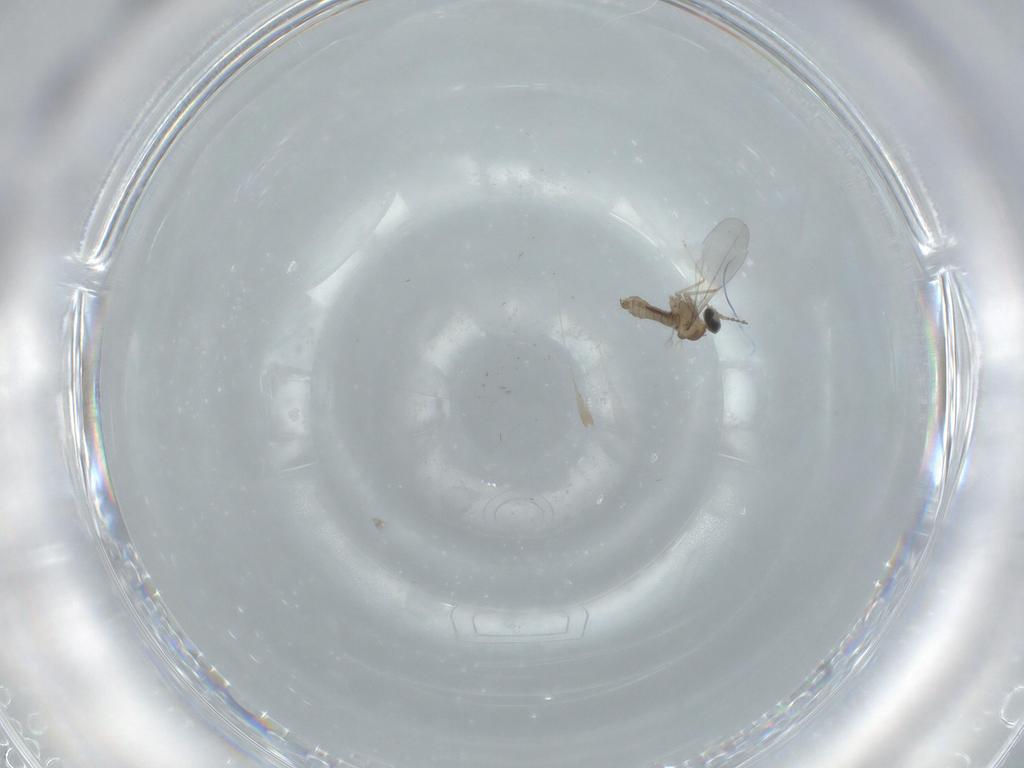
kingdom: Animalia
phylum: Arthropoda
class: Insecta
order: Diptera
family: Cecidomyiidae
